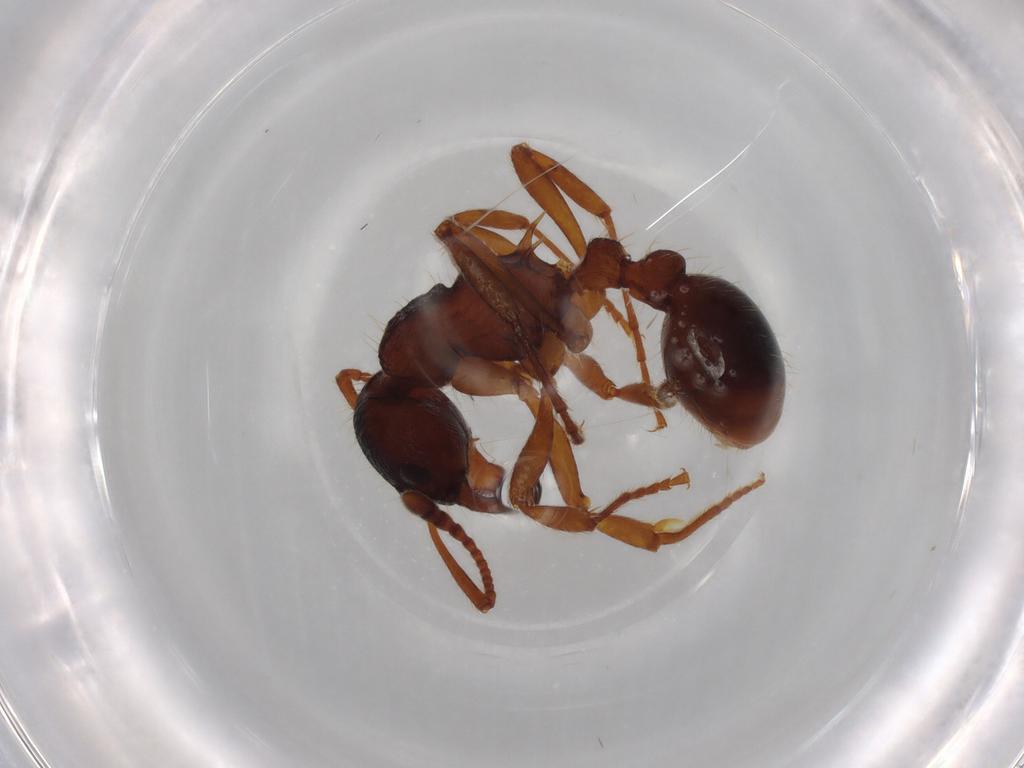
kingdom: Animalia
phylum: Arthropoda
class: Insecta
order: Hymenoptera
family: Formicidae
